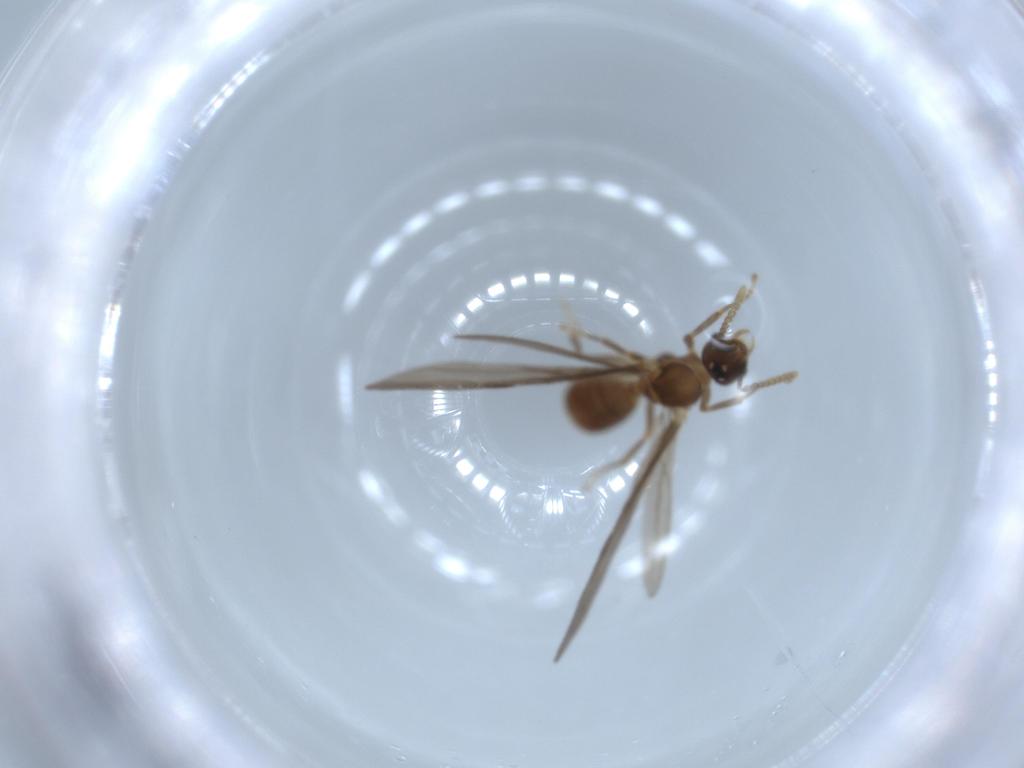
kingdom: Animalia
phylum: Arthropoda
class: Insecta
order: Hymenoptera
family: Formicidae
